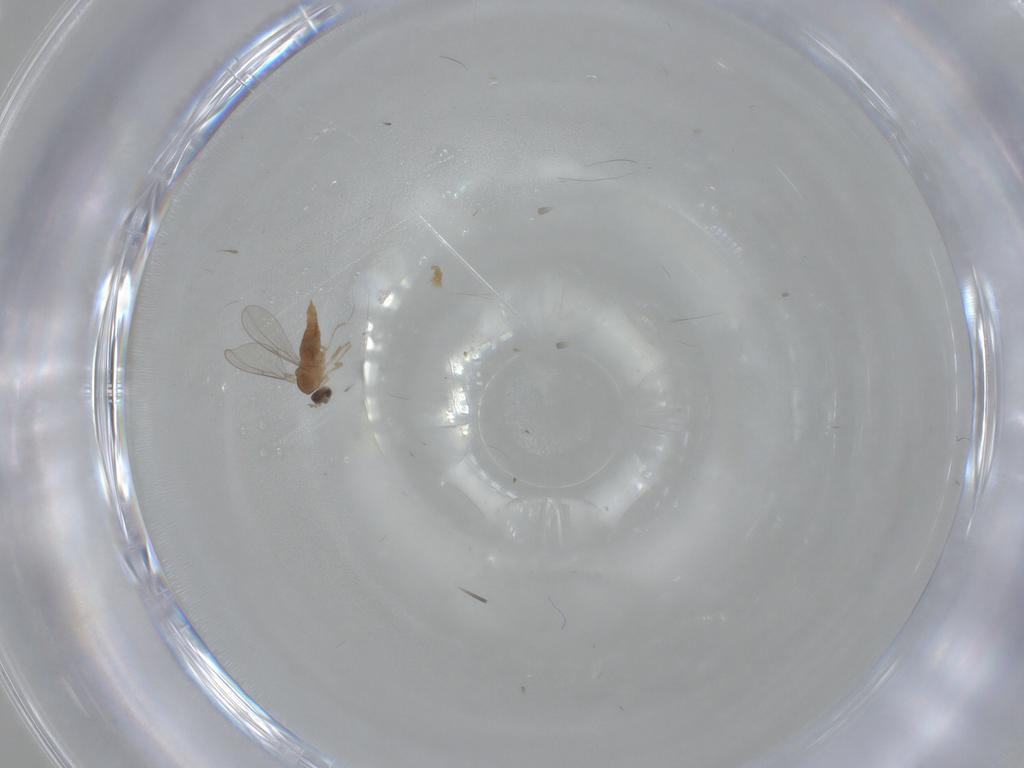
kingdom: Animalia
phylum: Arthropoda
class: Insecta
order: Diptera
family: Cecidomyiidae
